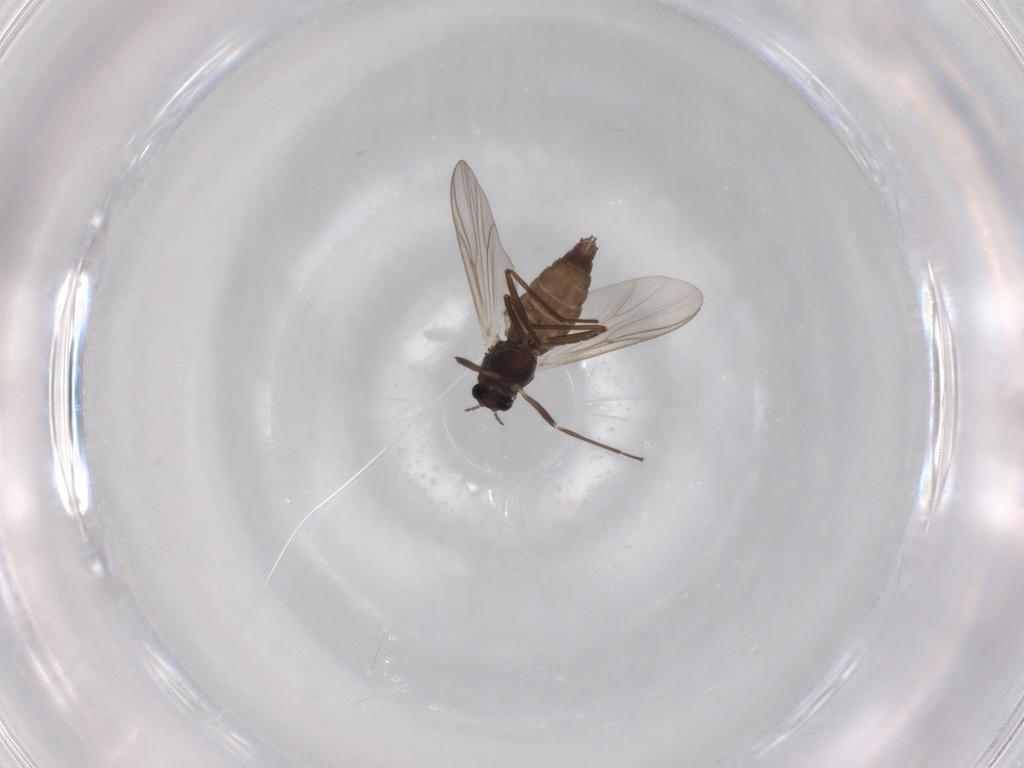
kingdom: Animalia
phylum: Arthropoda
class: Insecta
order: Diptera
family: Chironomidae
